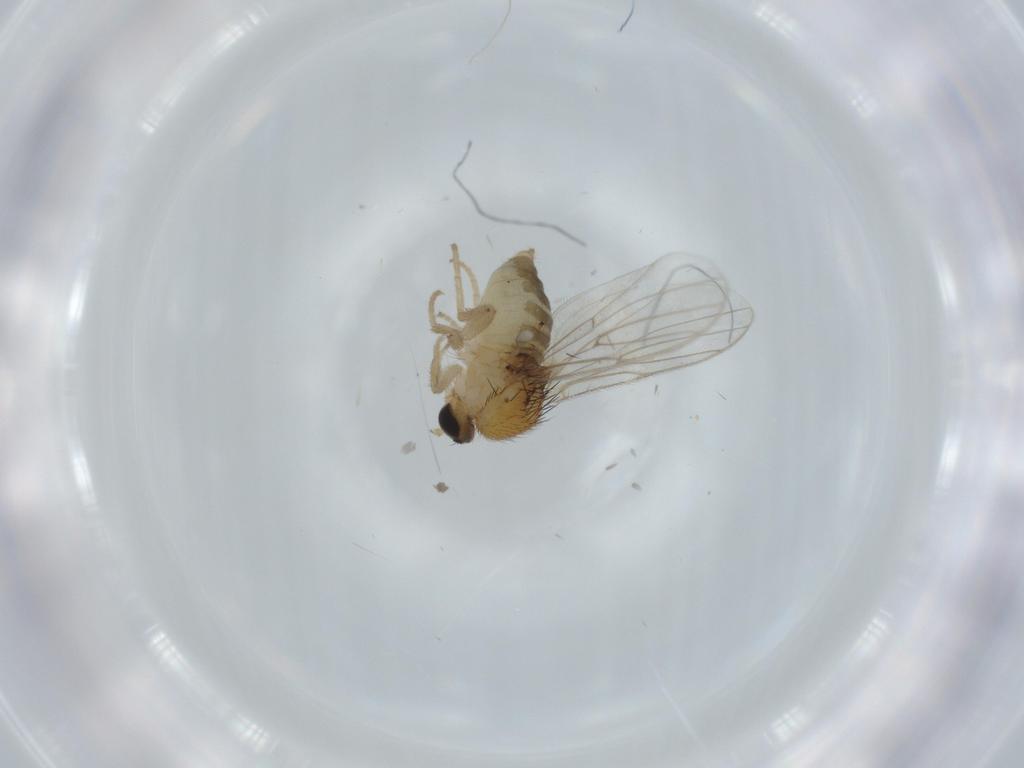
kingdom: Animalia
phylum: Arthropoda
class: Insecta
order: Diptera
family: Hybotidae
